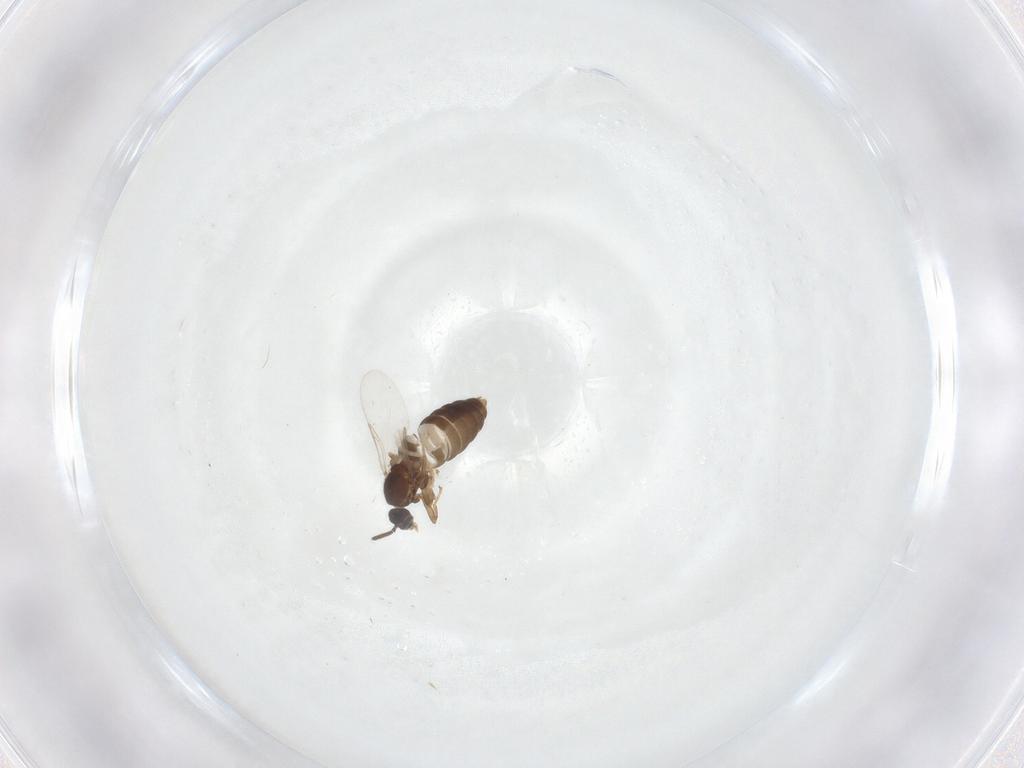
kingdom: Animalia
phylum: Arthropoda
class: Insecta
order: Diptera
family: Scatopsidae
